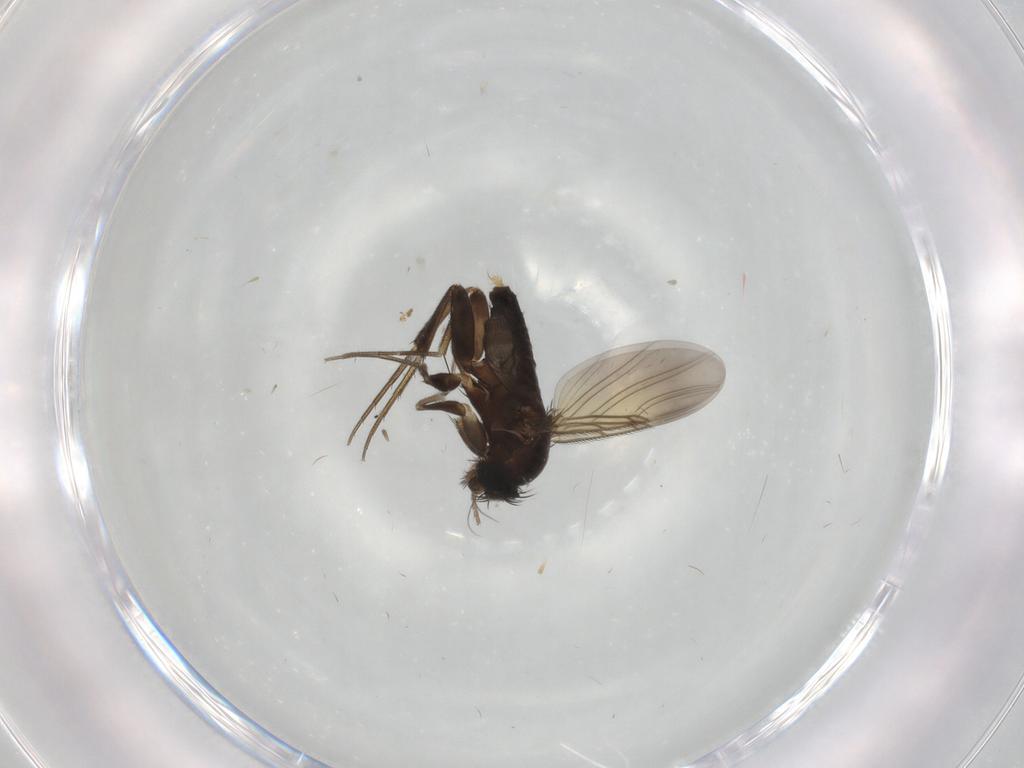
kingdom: Animalia
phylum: Arthropoda
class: Insecta
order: Diptera
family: Phoridae
